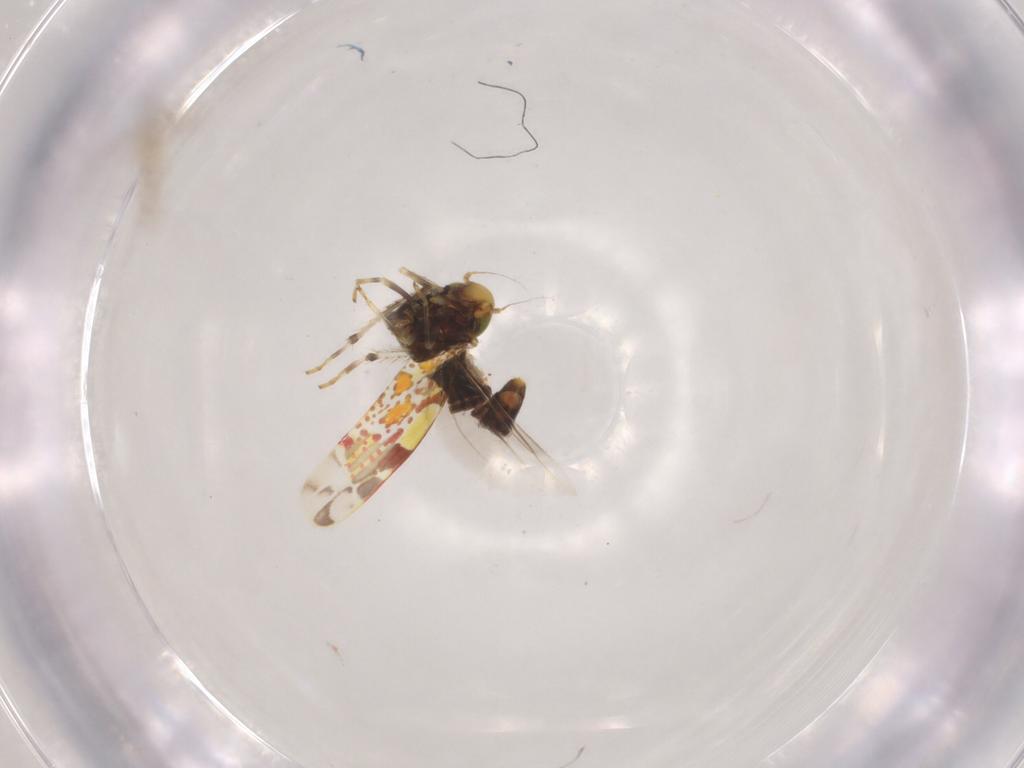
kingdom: Animalia
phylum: Arthropoda
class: Insecta
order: Hemiptera
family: Cicadellidae
